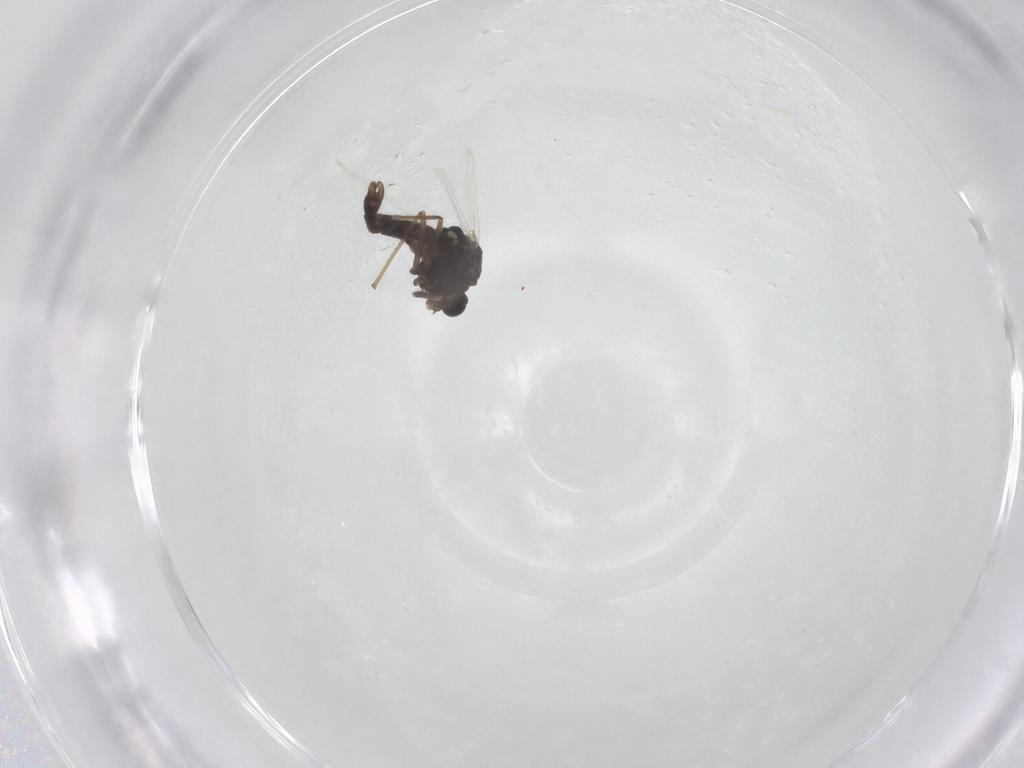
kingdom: Animalia
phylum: Arthropoda
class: Insecta
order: Diptera
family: Chironomidae
